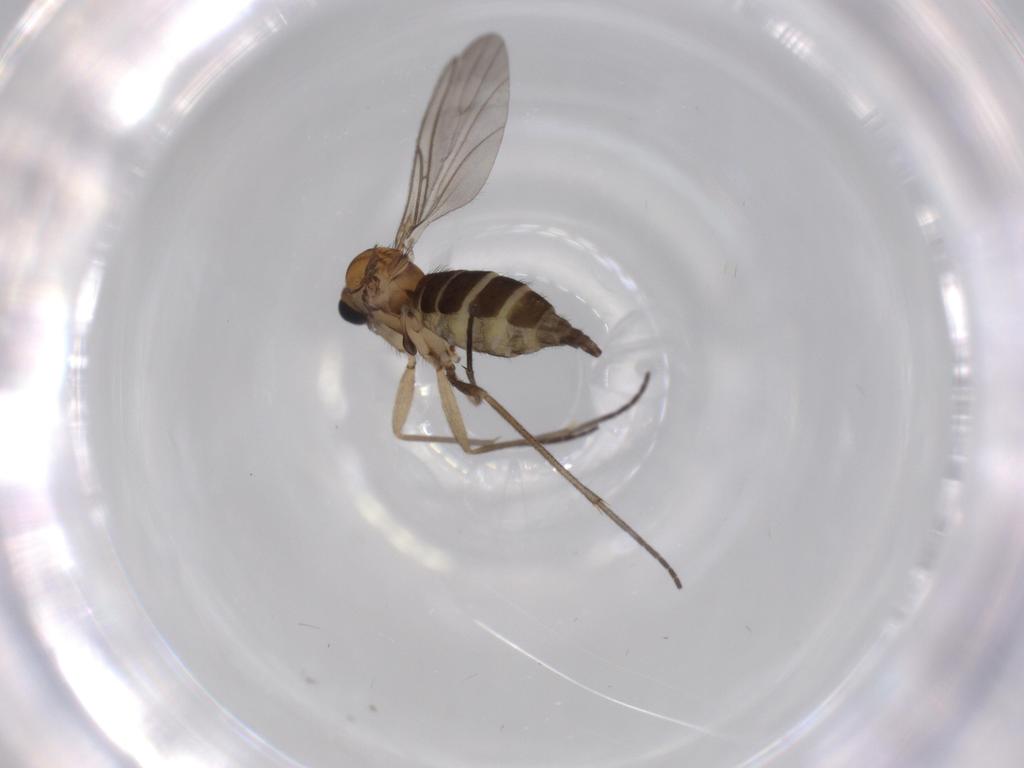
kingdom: Animalia
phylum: Arthropoda
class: Insecta
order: Diptera
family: Sciaridae
